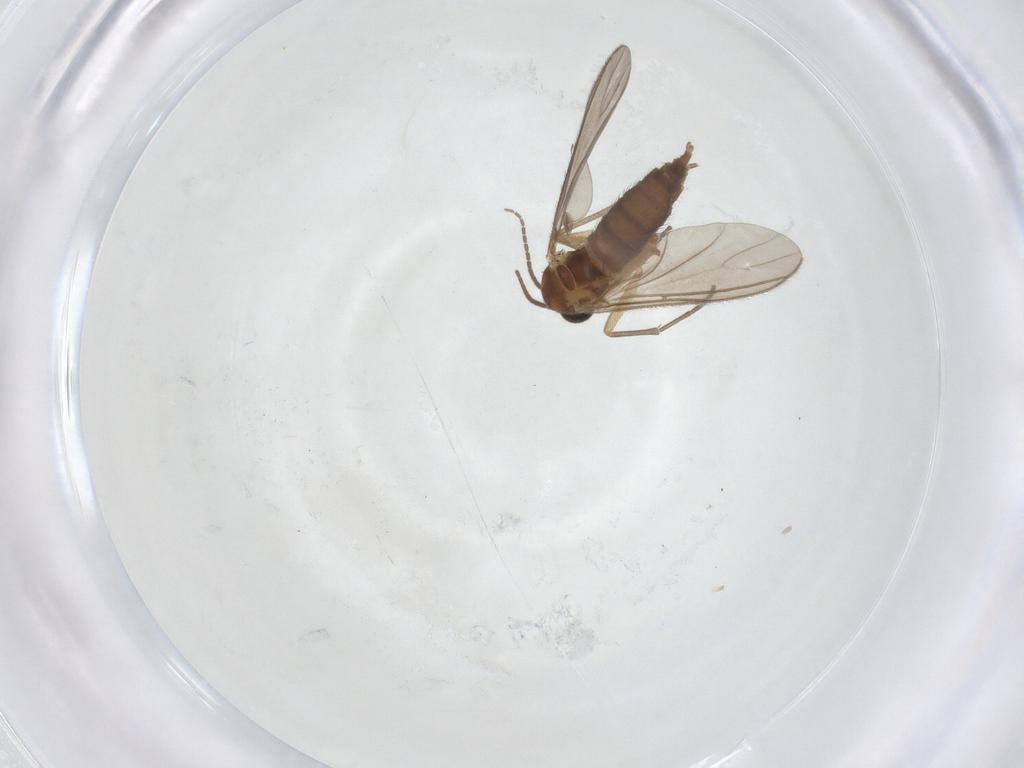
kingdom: Animalia
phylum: Arthropoda
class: Insecta
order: Diptera
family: Sciaridae
